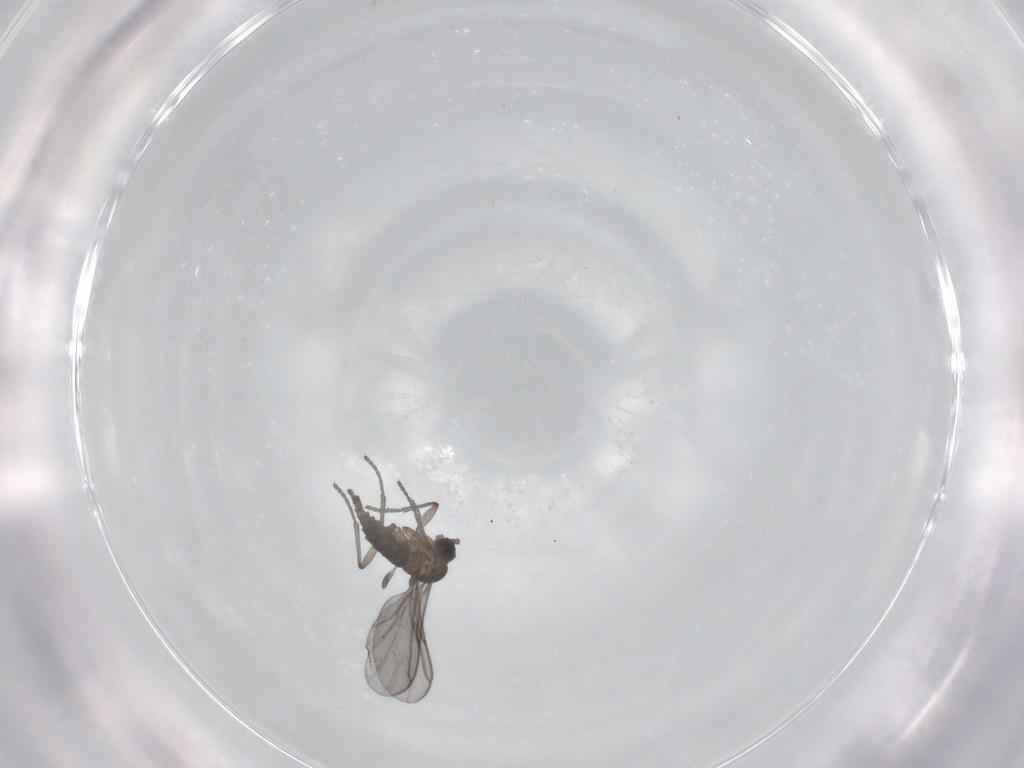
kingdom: Animalia
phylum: Arthropoda
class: Insecta
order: Diptera
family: Limoniidae
